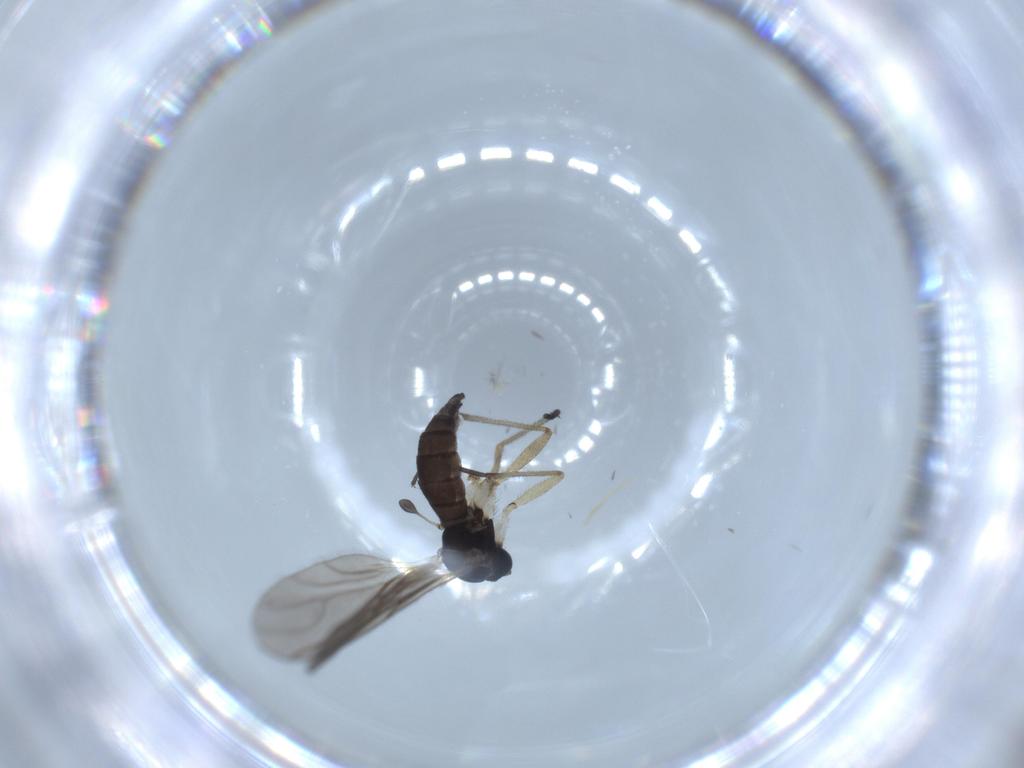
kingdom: Animalia
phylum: Arthropoda
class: Insecta
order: Diptera
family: Sciaridae
